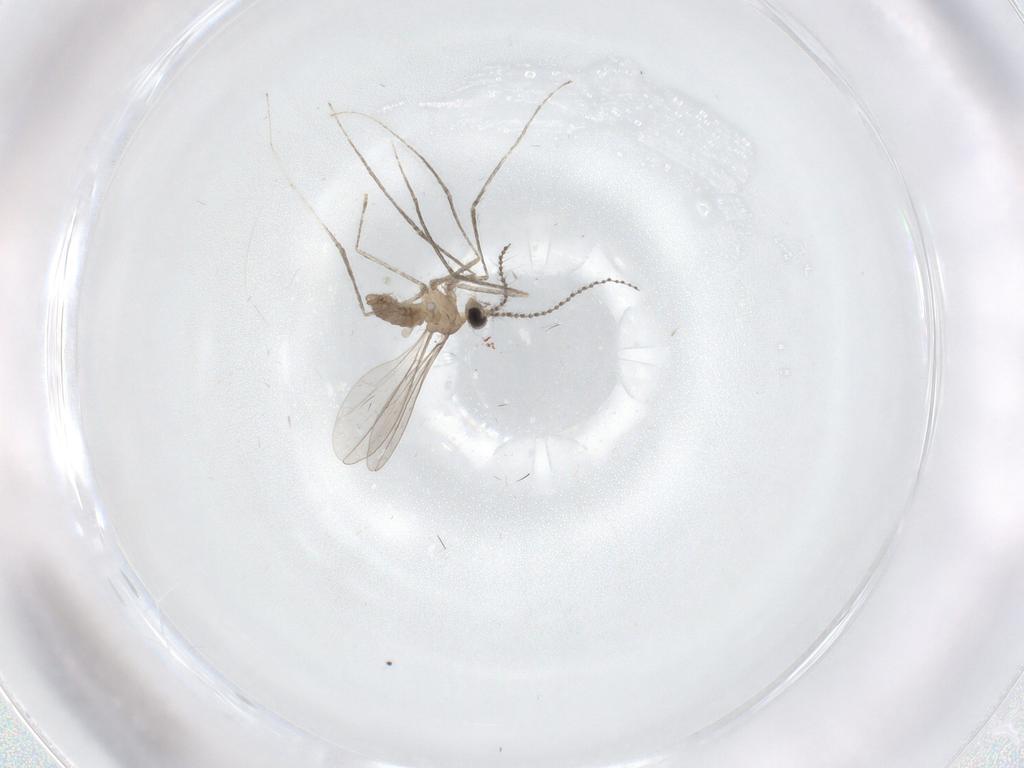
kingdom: Animalia
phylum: Arthropoda
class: Insecta
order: Diptera
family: Cecidomyiidae
